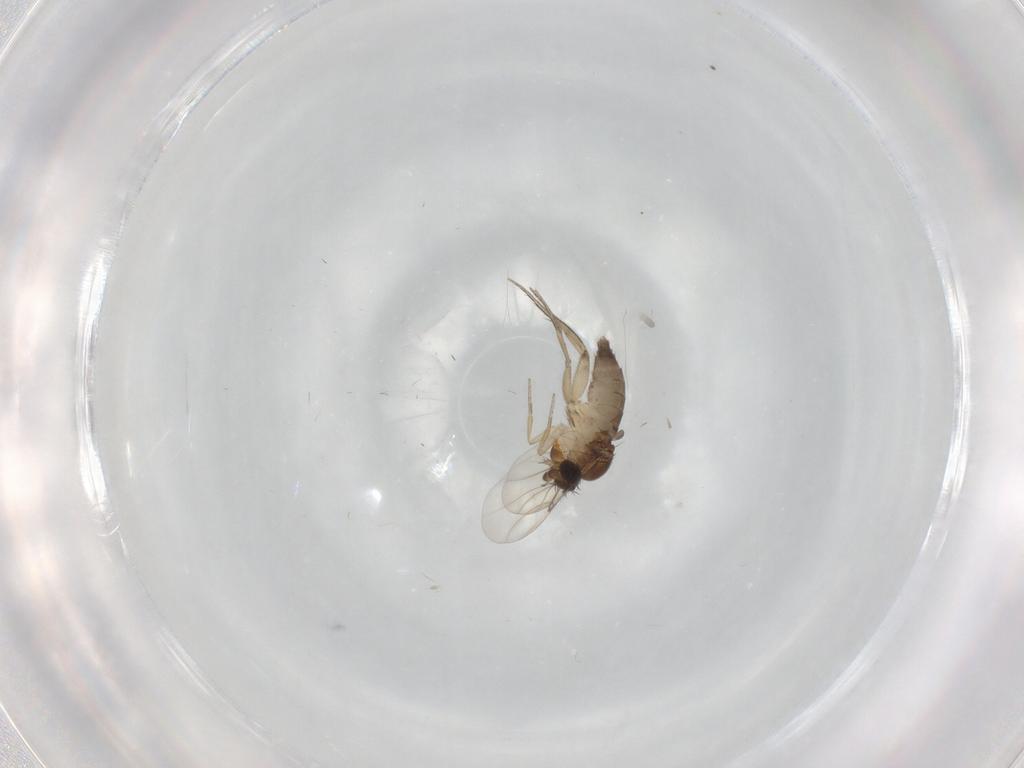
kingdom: Animalia
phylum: Arthropoda
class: Insecta
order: Diptera
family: Phoridae
